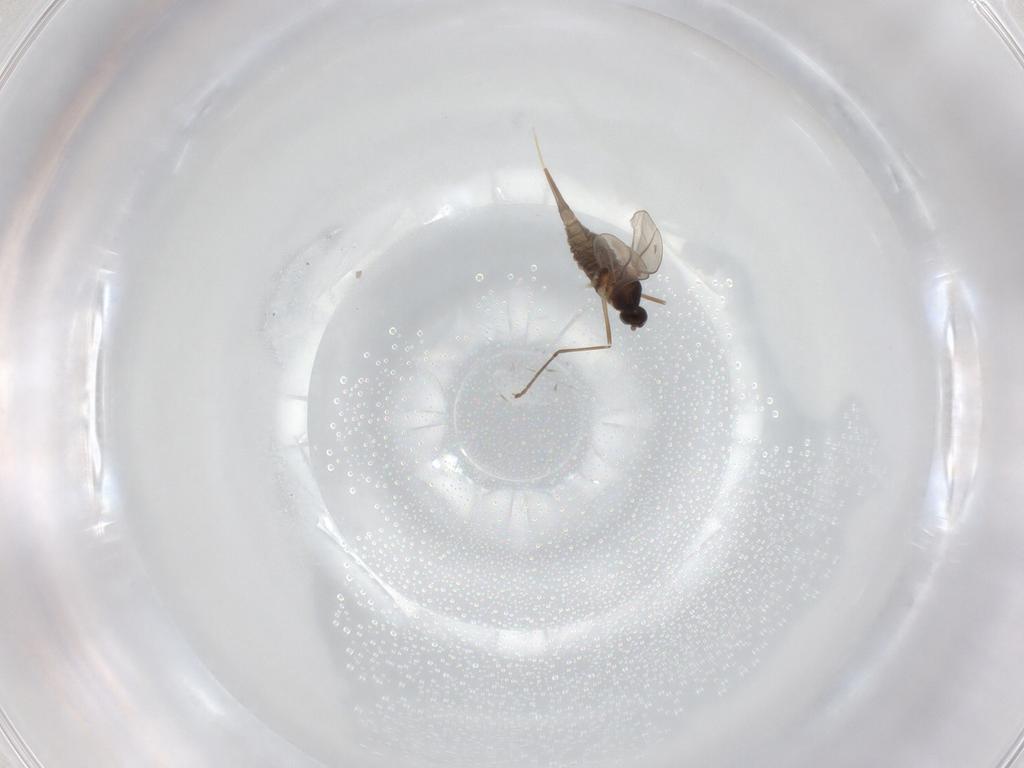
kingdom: Animalia
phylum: Arthropoda
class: Insecta
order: Diptera
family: Cecidomyiidae
